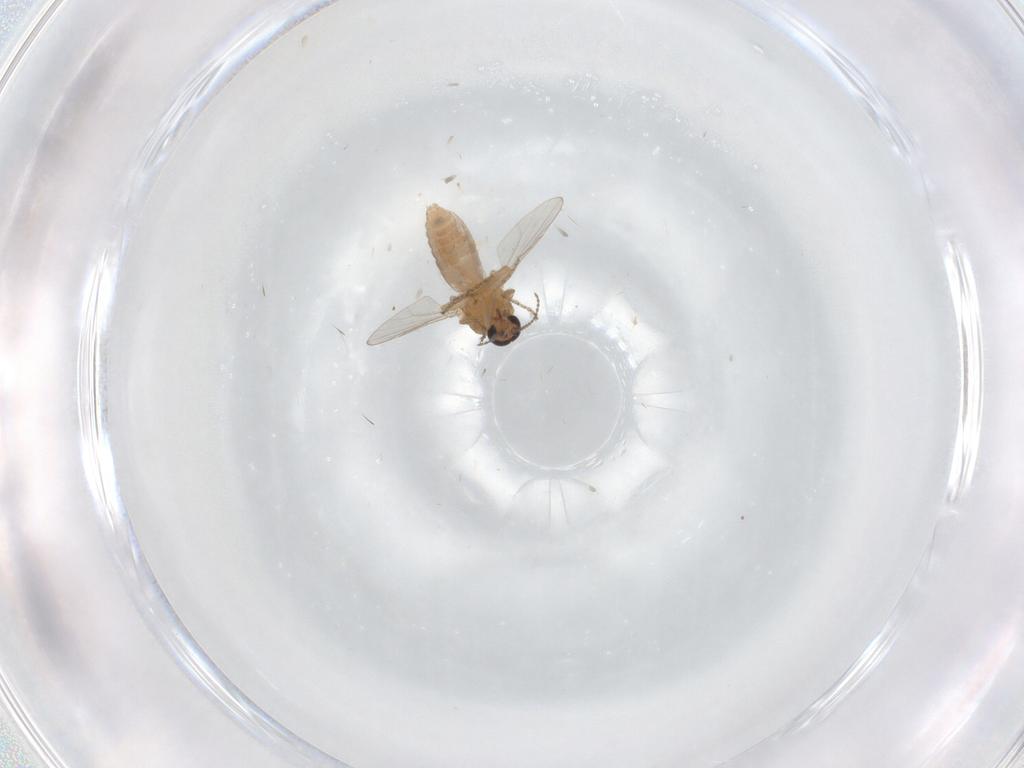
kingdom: Animalia
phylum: Arthropoda
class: Insecta
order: Diptera
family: Ceratopogonidae
